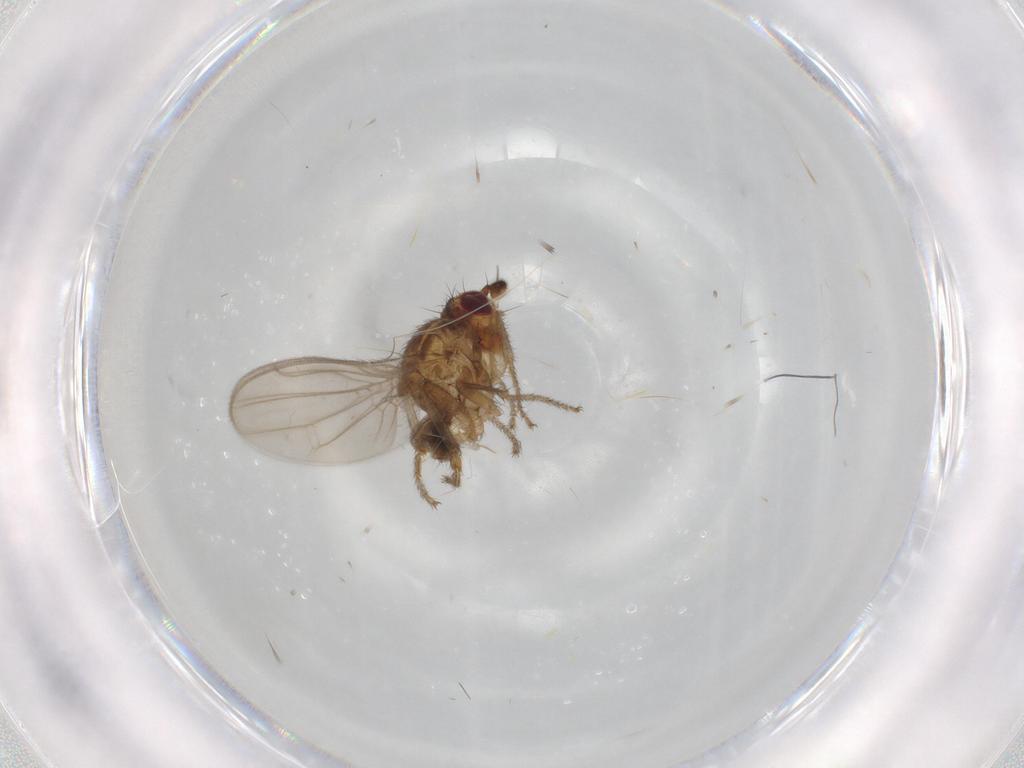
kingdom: Animalia
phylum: Arthropoda
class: Insecta
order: Diptera
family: Sphaeroceridae
